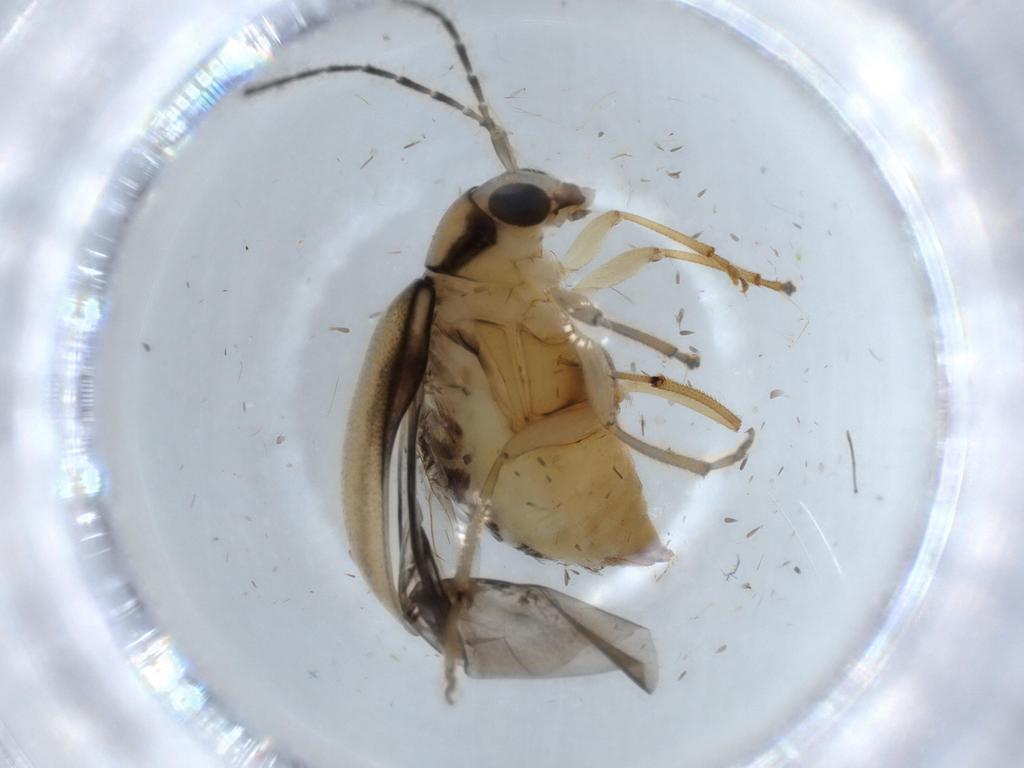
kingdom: Animalia
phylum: Arthropoda
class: Insecta
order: Coleoptera
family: Chrysomelidae
